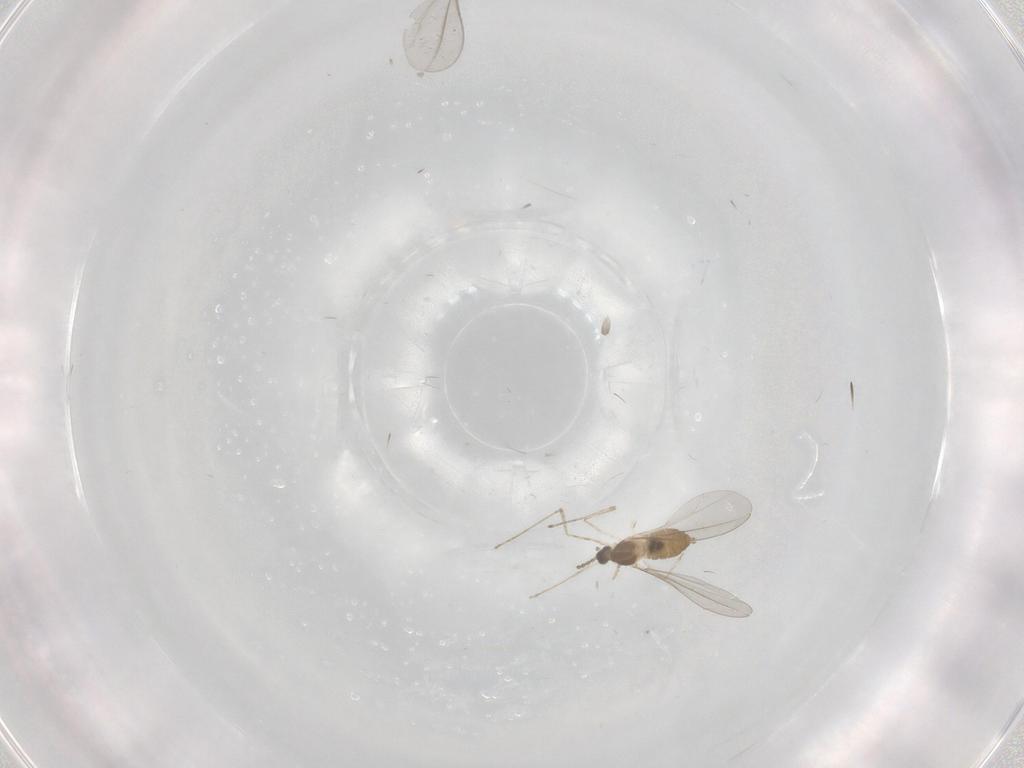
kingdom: Animalia
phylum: Arthropoda
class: Insecta
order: Diptera
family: Cecidomyiidae
